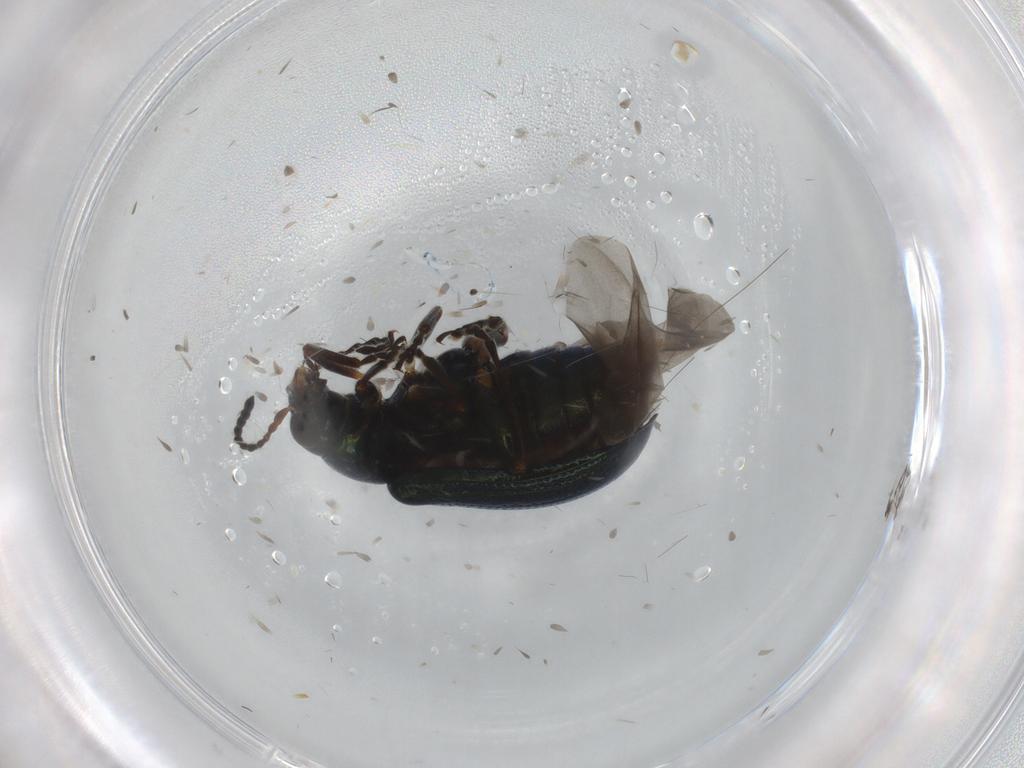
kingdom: Animalia
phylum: Arthropoda
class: Insecta
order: Coleoptera
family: Chrysomelidae
